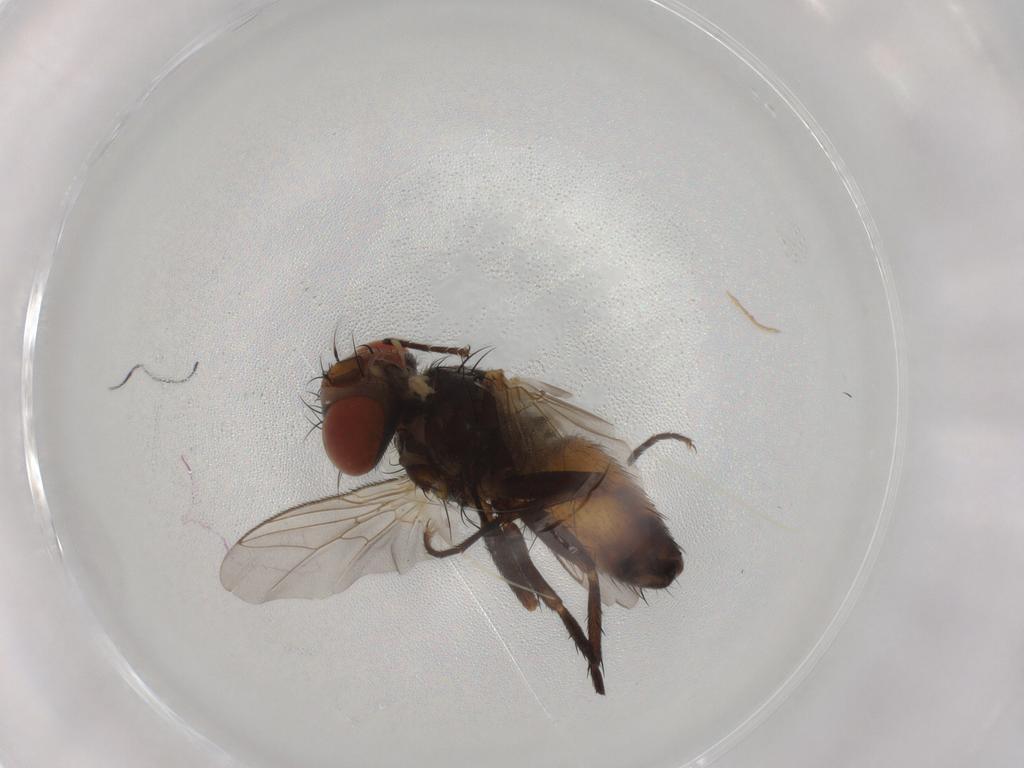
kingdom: Animalia
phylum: Arthropoda
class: Insecta
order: Diptera
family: Sarcophagidae
